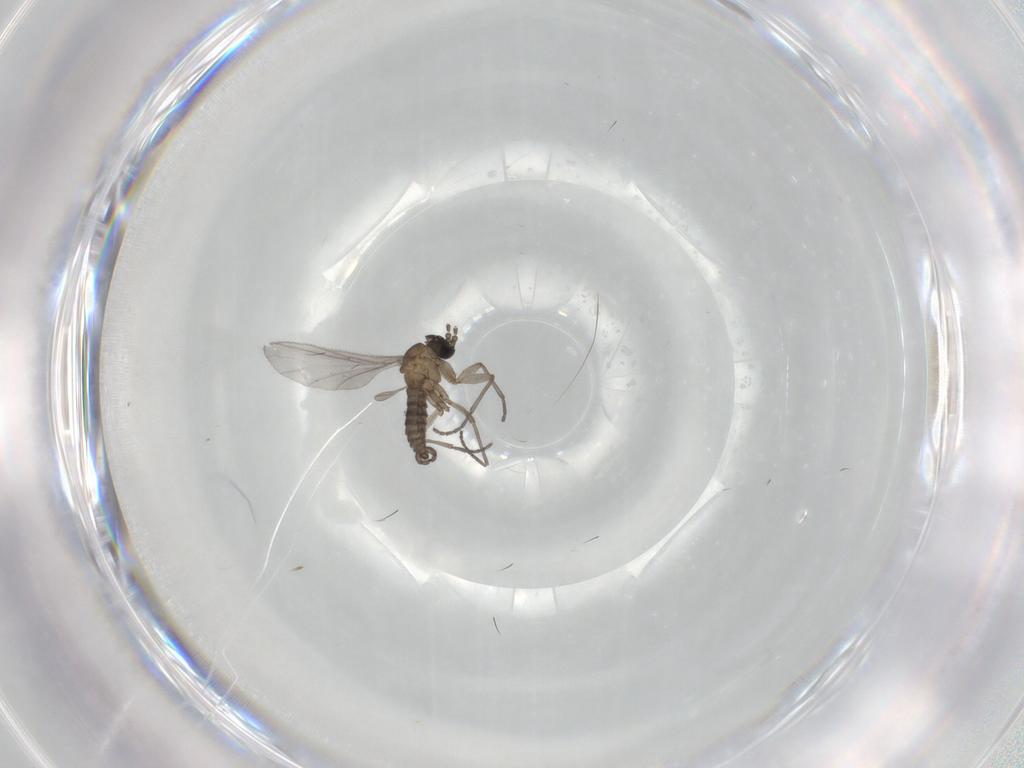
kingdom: Animalia
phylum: Arthropoda
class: Insecta
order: Diptera
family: Sciaridae
